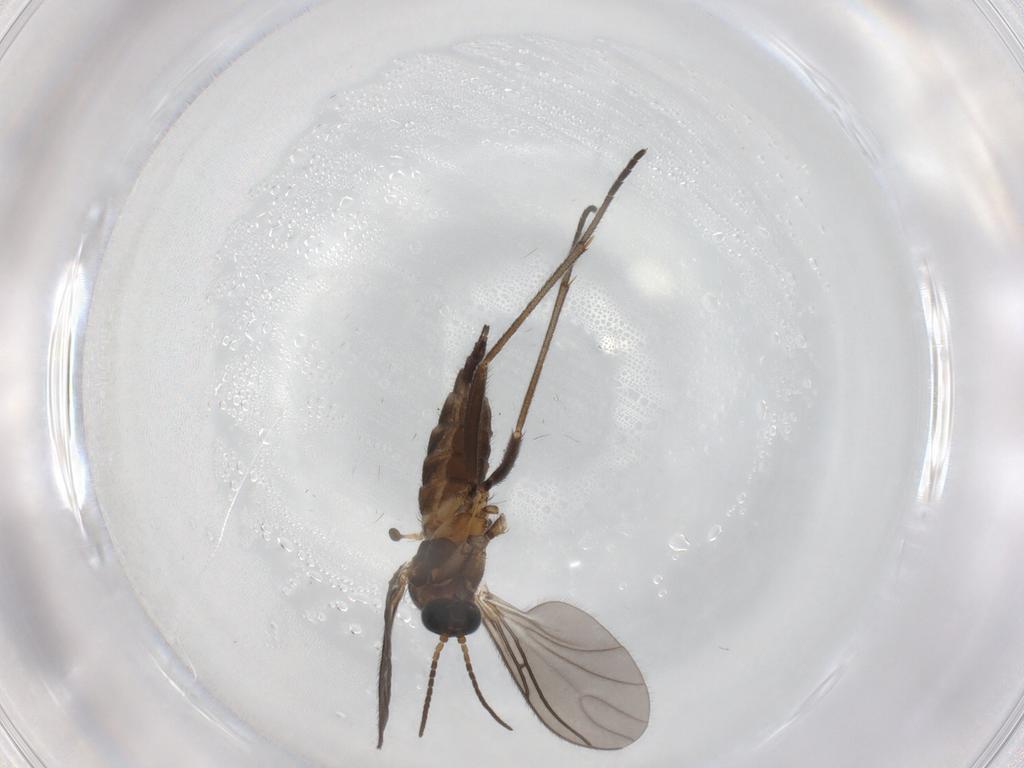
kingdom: Animalia
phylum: Arthropoda
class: Insecta
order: Diptera
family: Sciaridae
